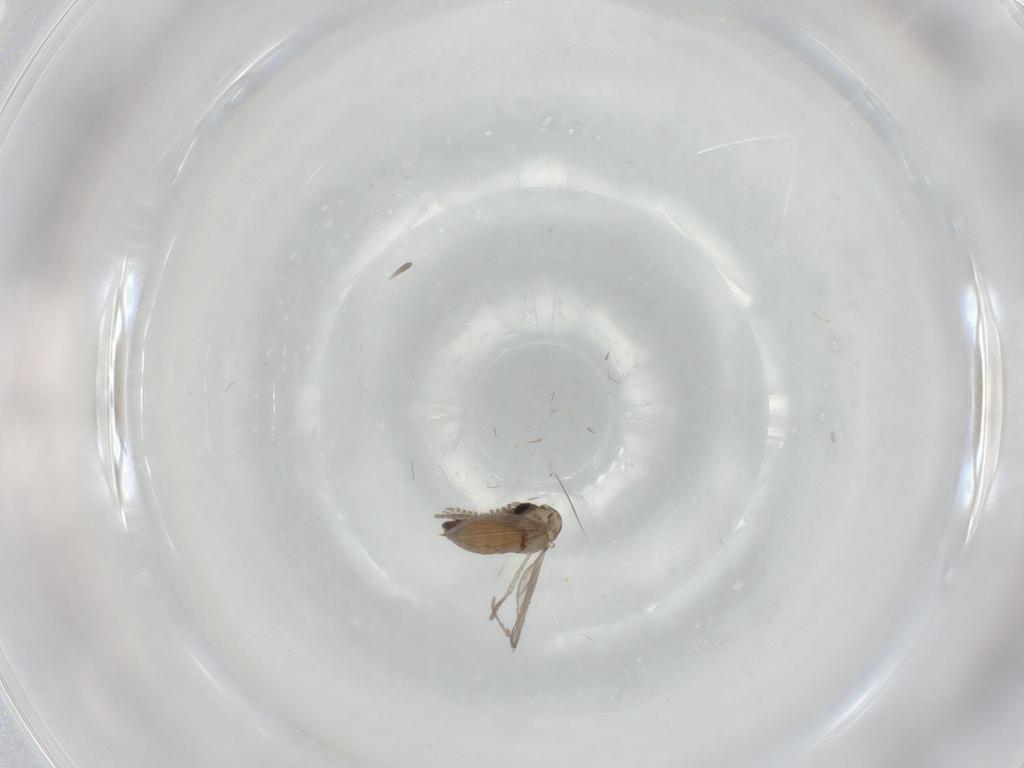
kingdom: Animalia
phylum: Arthropoda
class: Insecta
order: Diptera
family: Psychodidae
